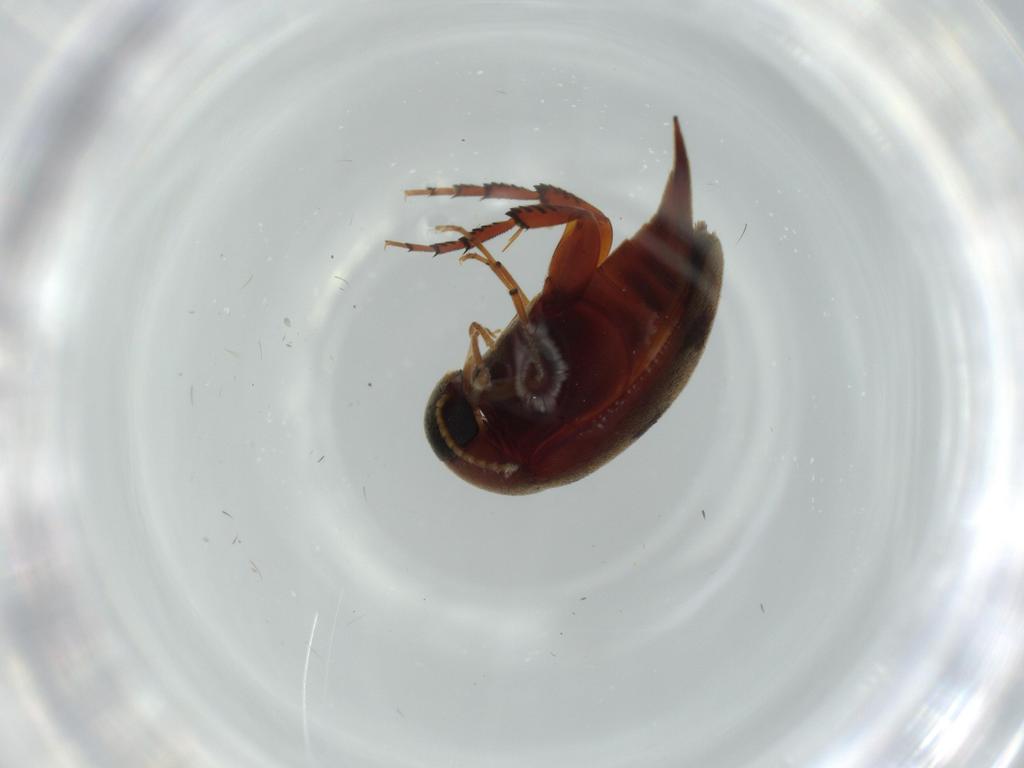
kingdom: Animalia
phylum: Arthropoda
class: Insecta
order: Coleoptera
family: Mordellidae
